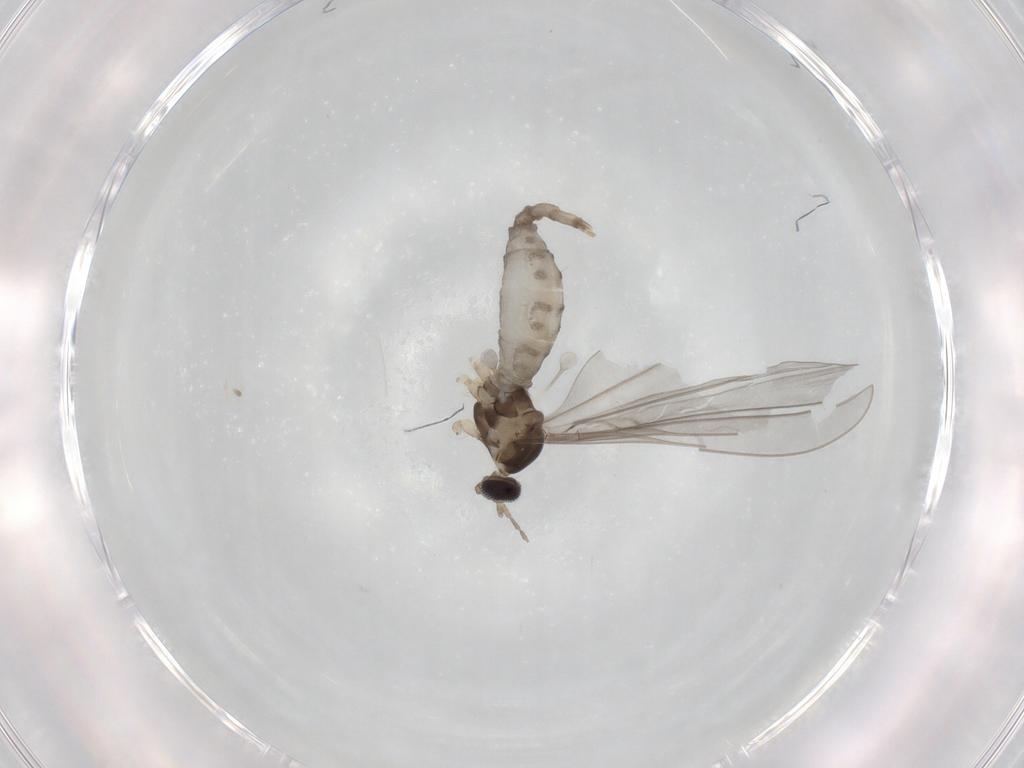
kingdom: Animalia
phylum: Arthropoda
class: Insecta
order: Diptera
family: Cecidomyiidae
